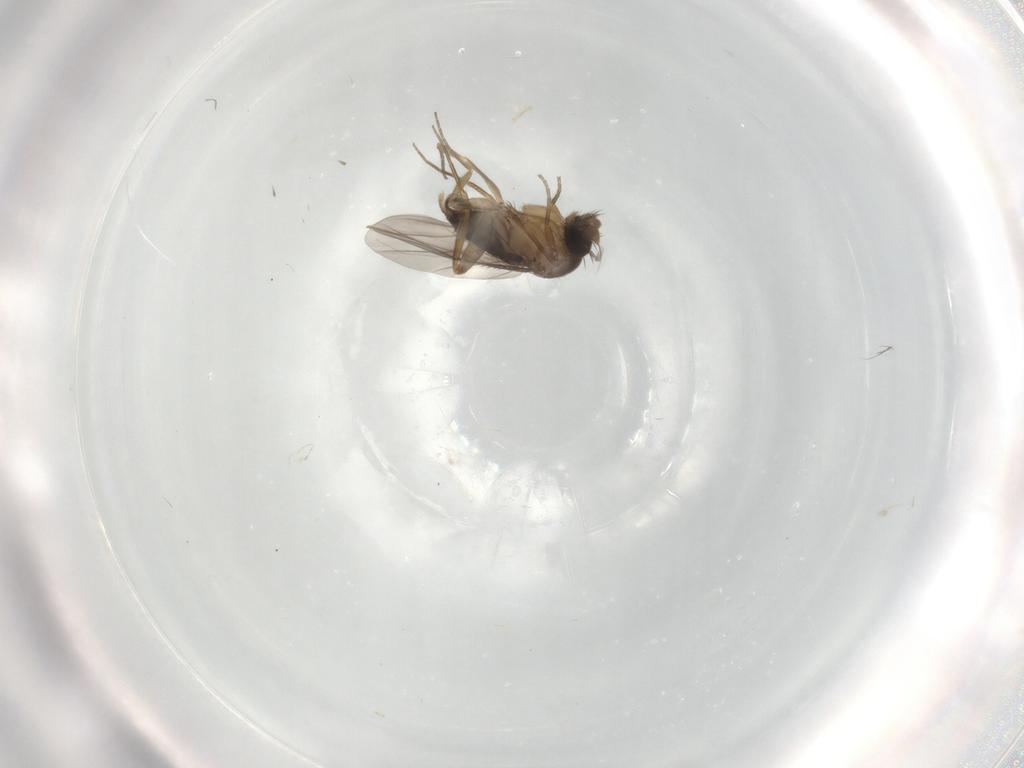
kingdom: Animalia
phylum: Arthropoda
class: Insecta
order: Diptera
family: Phoridae
